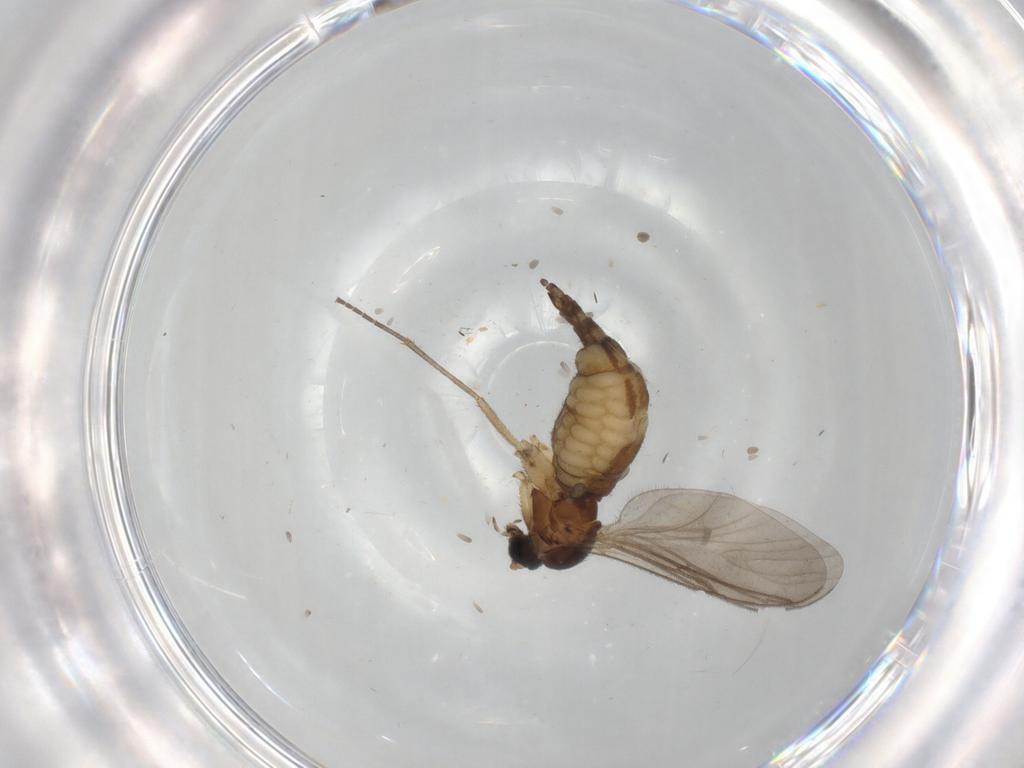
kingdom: Animalia
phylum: Arthropoda
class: Insecta
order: Diptera
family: Sciaridae
